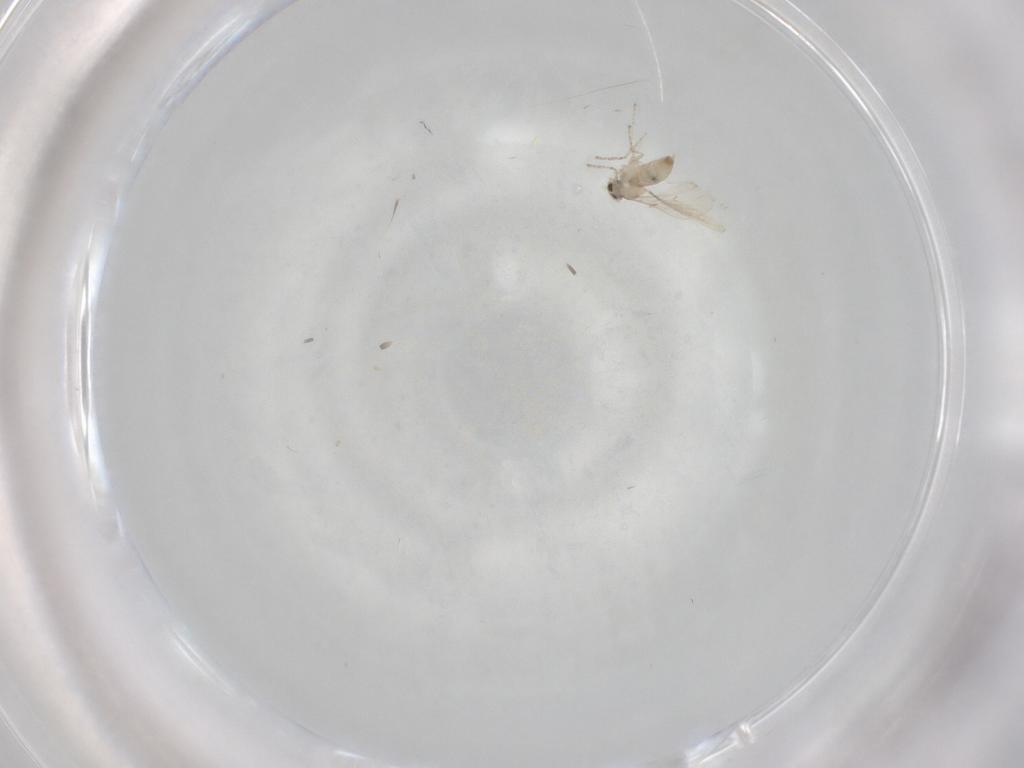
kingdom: Animalia
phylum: Arthropoda
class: Insecta
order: Diptera
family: Cecidomyiidae
